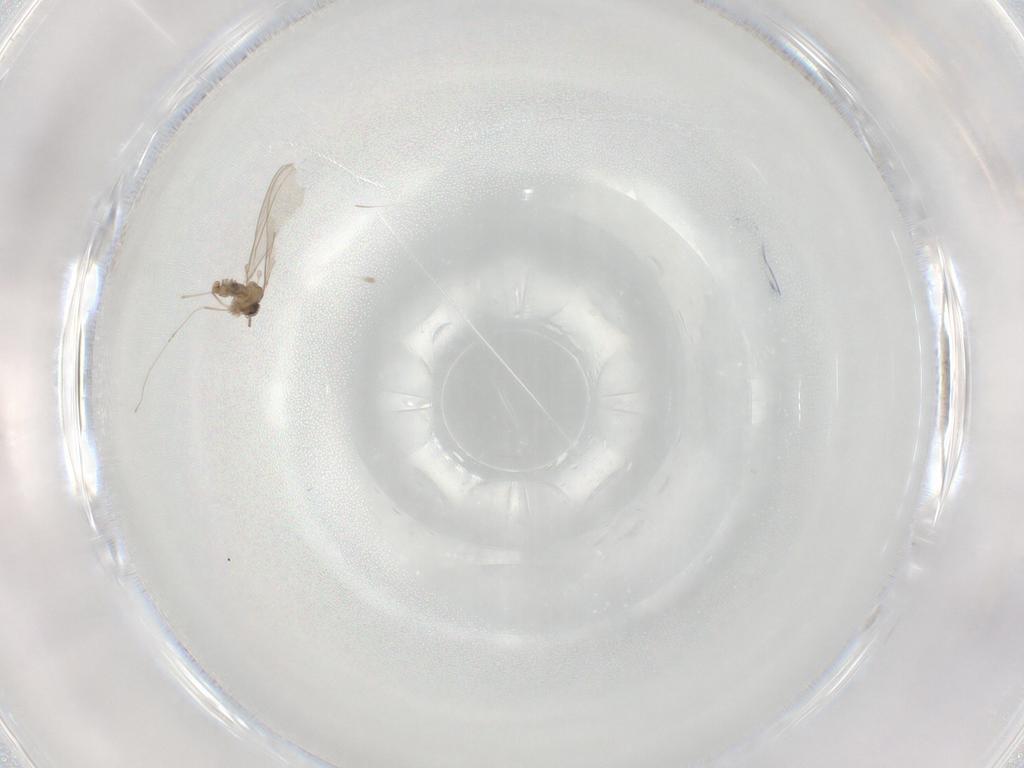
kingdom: Animalia
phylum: Arthropoda
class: Insecta
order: Diptera
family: Cecidomyiidae
